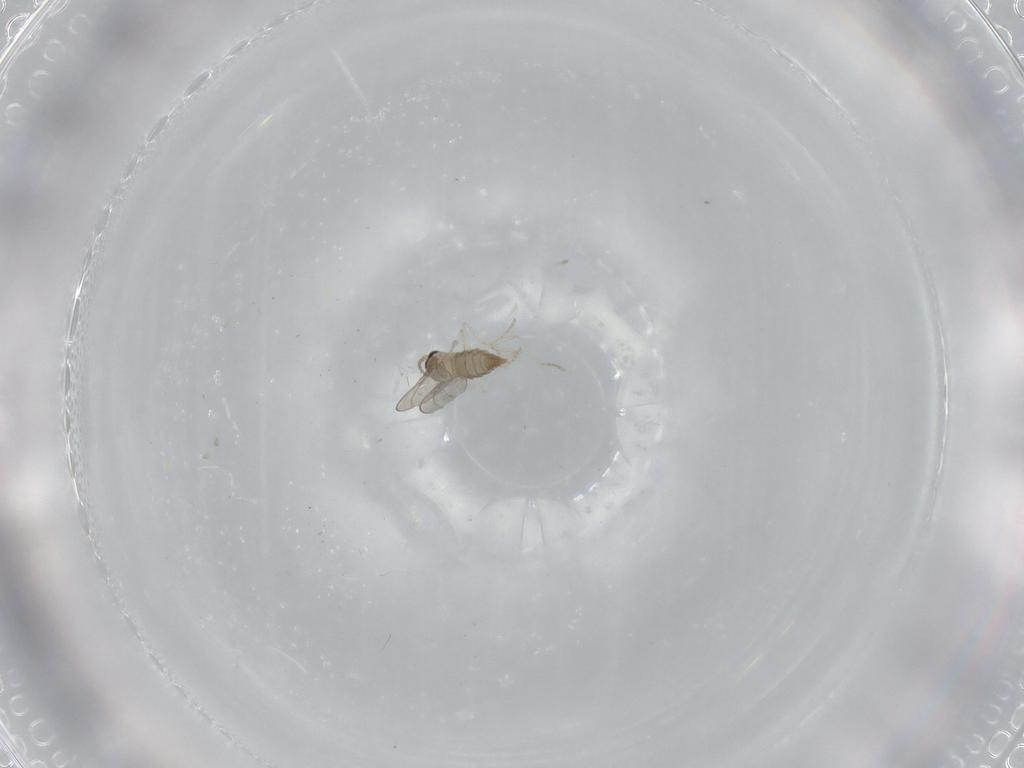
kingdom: Animalia
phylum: Arthropoda
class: Insecta
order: Diptera
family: Cecidomyiidae
